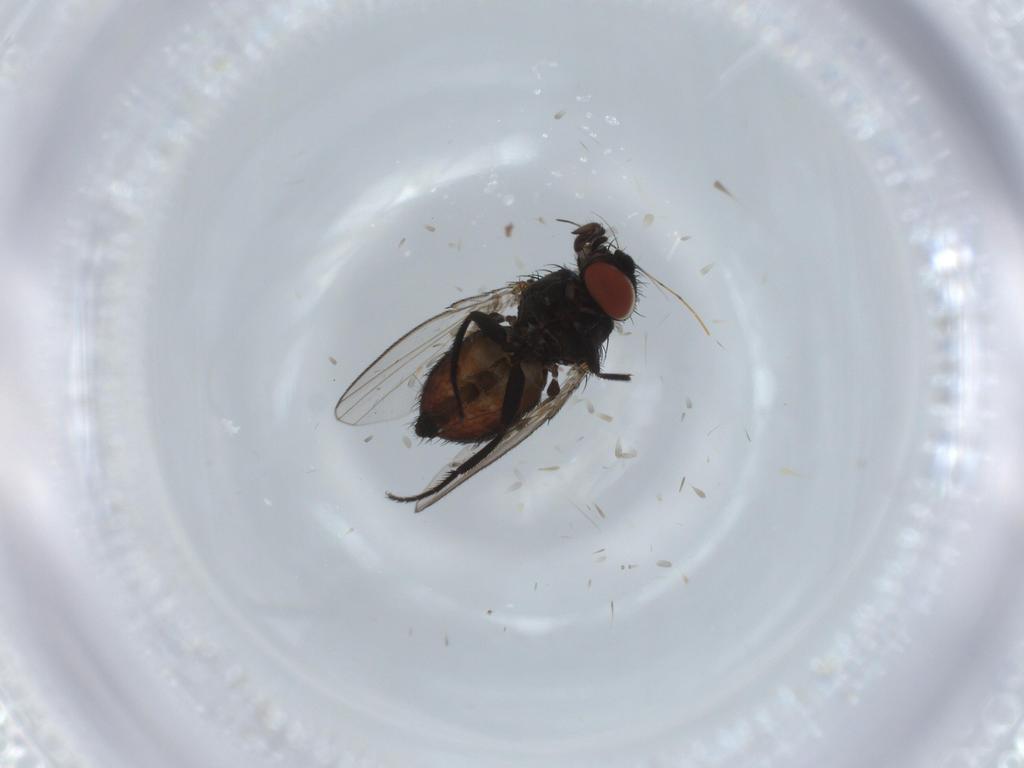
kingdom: Animalia
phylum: Arthropoda
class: Insecta
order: Diptera
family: Milichiidae
